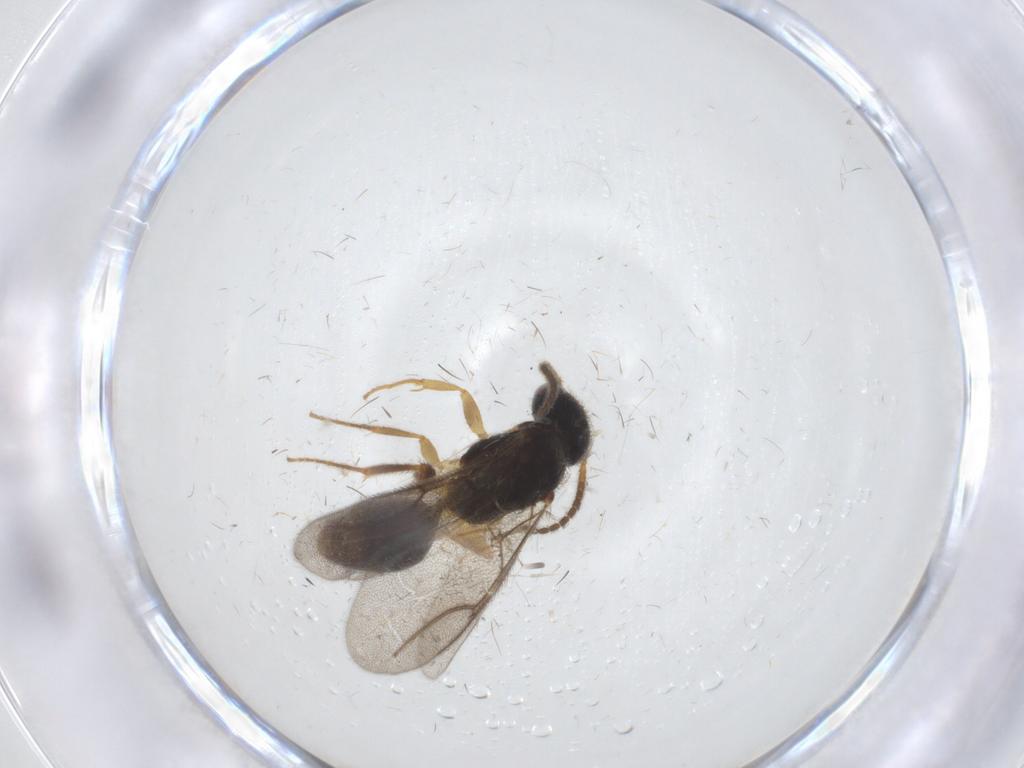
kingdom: Animalia
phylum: Arthropoda
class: Insecta
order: Hymenoptera
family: Bethylidae
